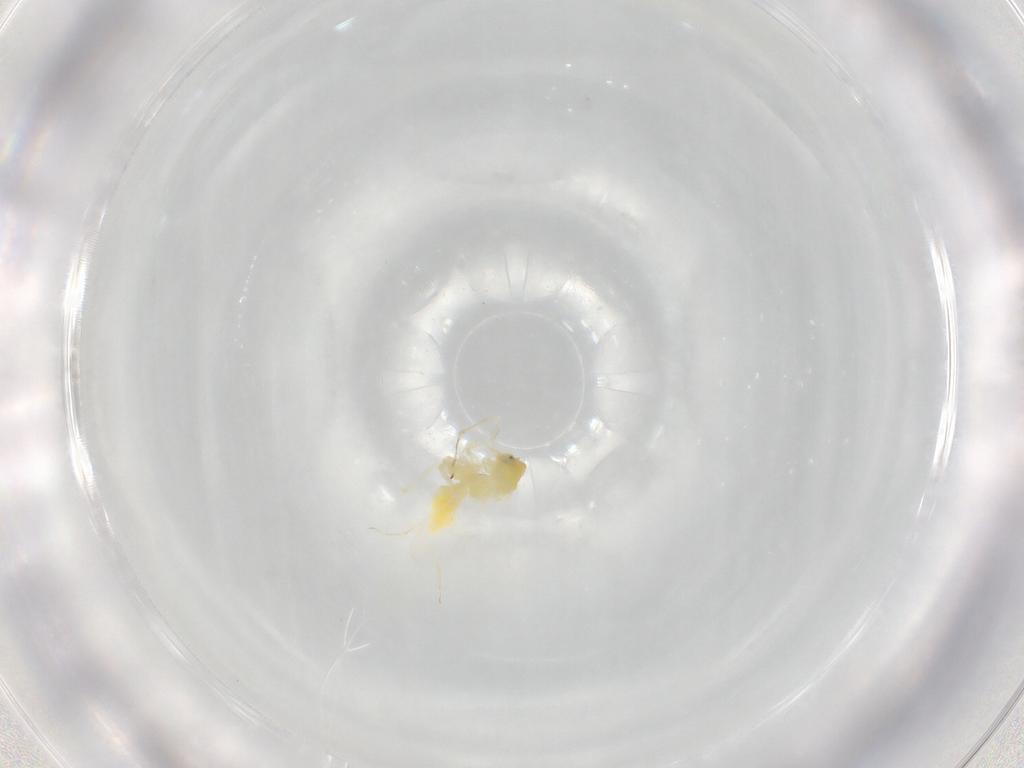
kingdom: Animalia
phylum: Arthropoda
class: Insecta
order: Hemiptera
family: Aleyrodidae
